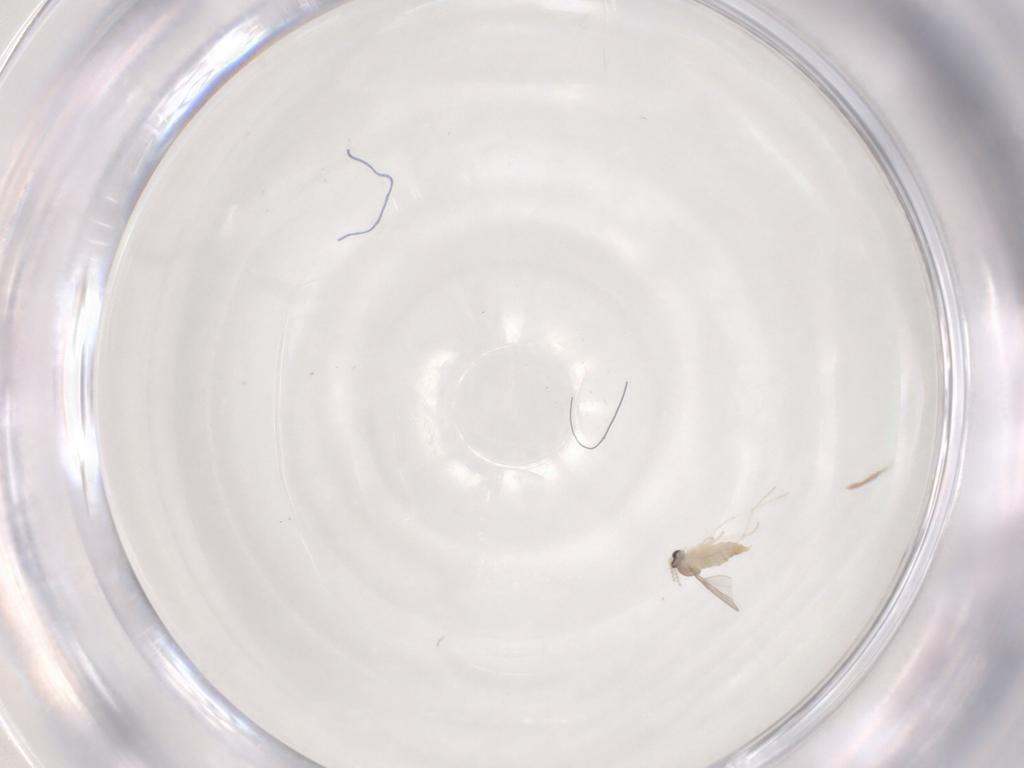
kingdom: Animalia
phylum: Arthropoda
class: Insecta
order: Diptera
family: Cecidomyiidae
